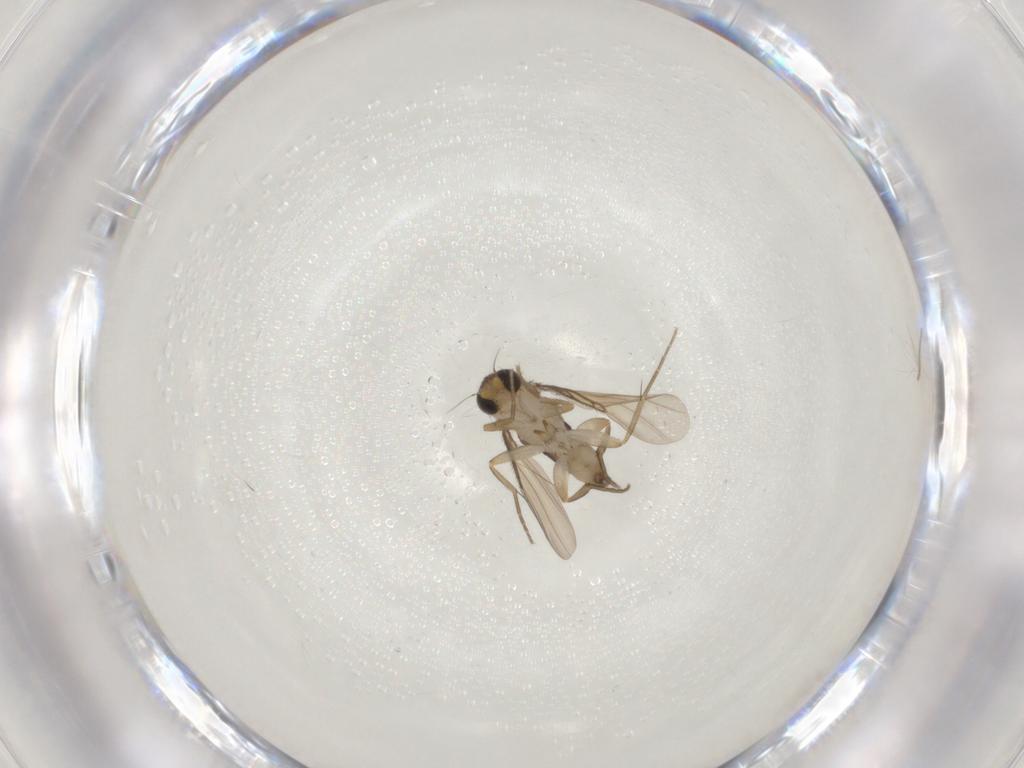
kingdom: Animalia
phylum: Arthropoda
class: Insecta
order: Diptera
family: Phoridae
